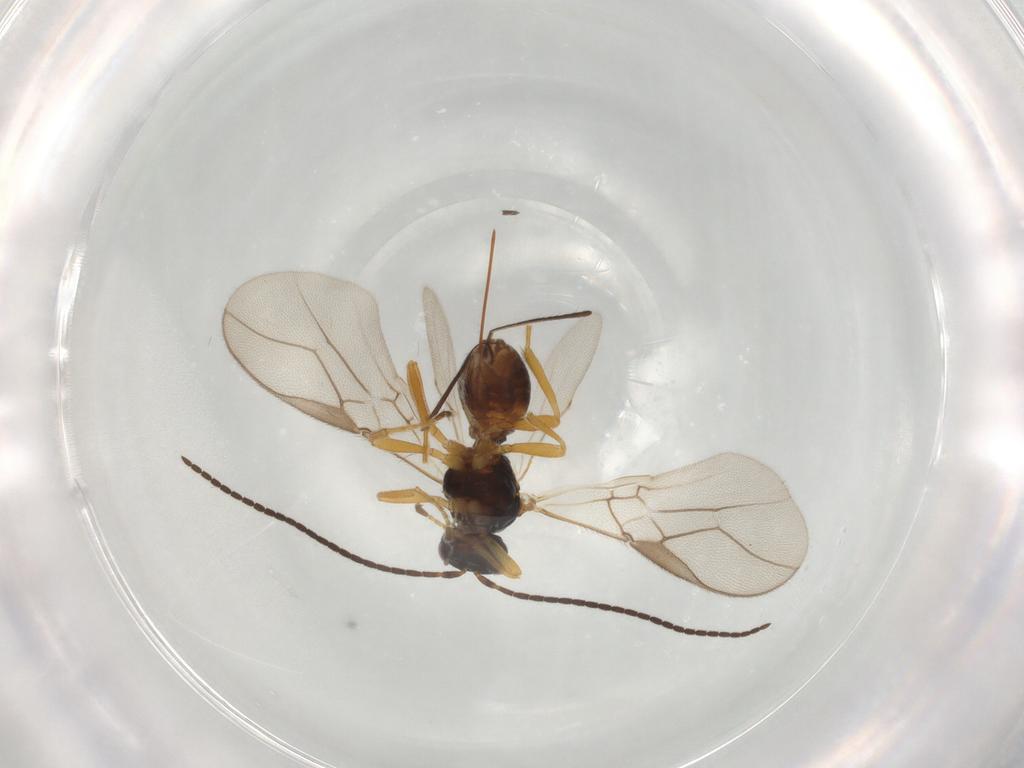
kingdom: Animalia
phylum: Arthropoda
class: Insecta
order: Hymenoptera
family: Braconidae
